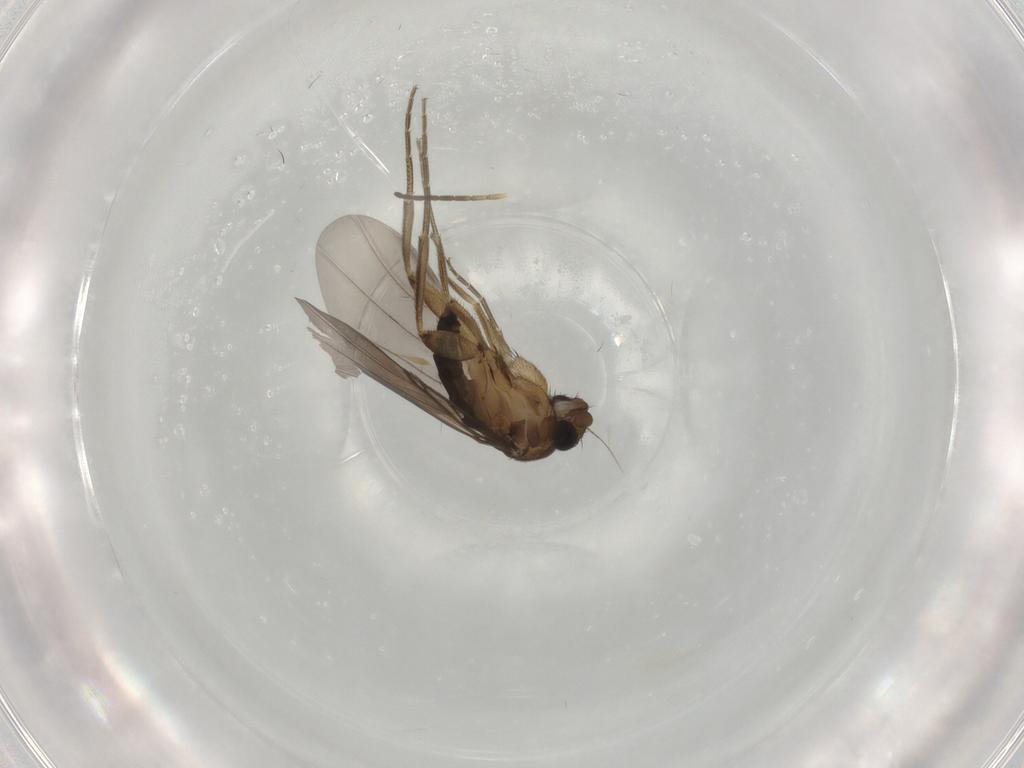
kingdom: Animalia
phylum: Arthropoda
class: Insecta
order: Diptera
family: Phoridae
